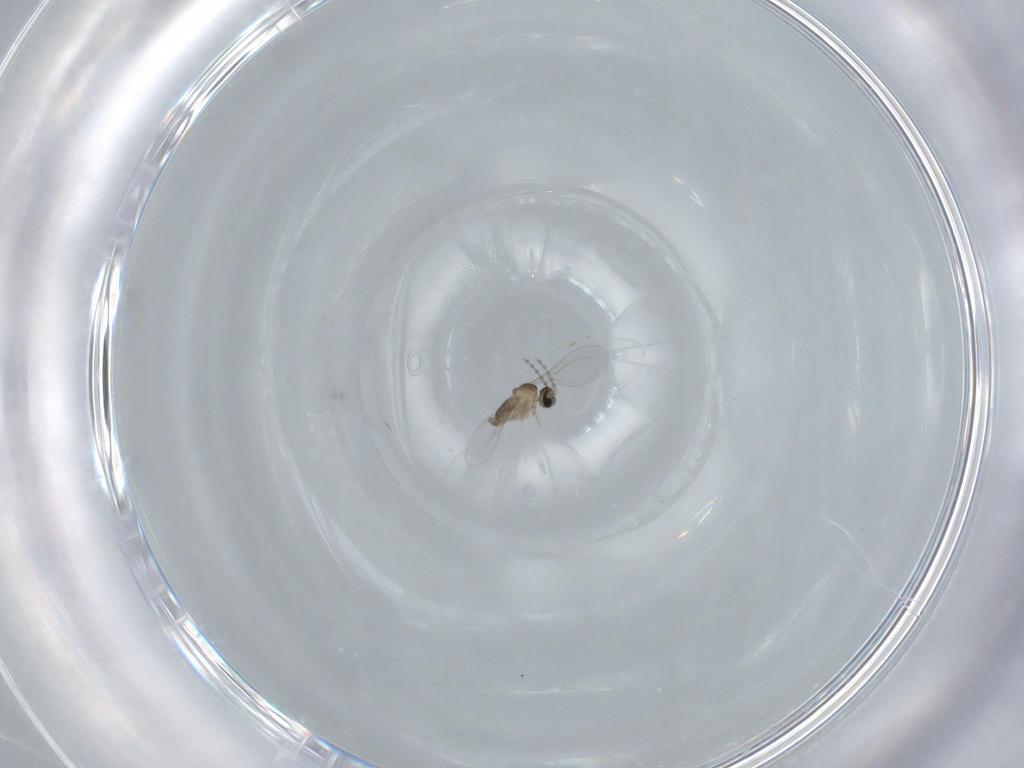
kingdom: Animalia
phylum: Arthropoda
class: Insecta
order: Diptera
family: Cecidomyiidae
